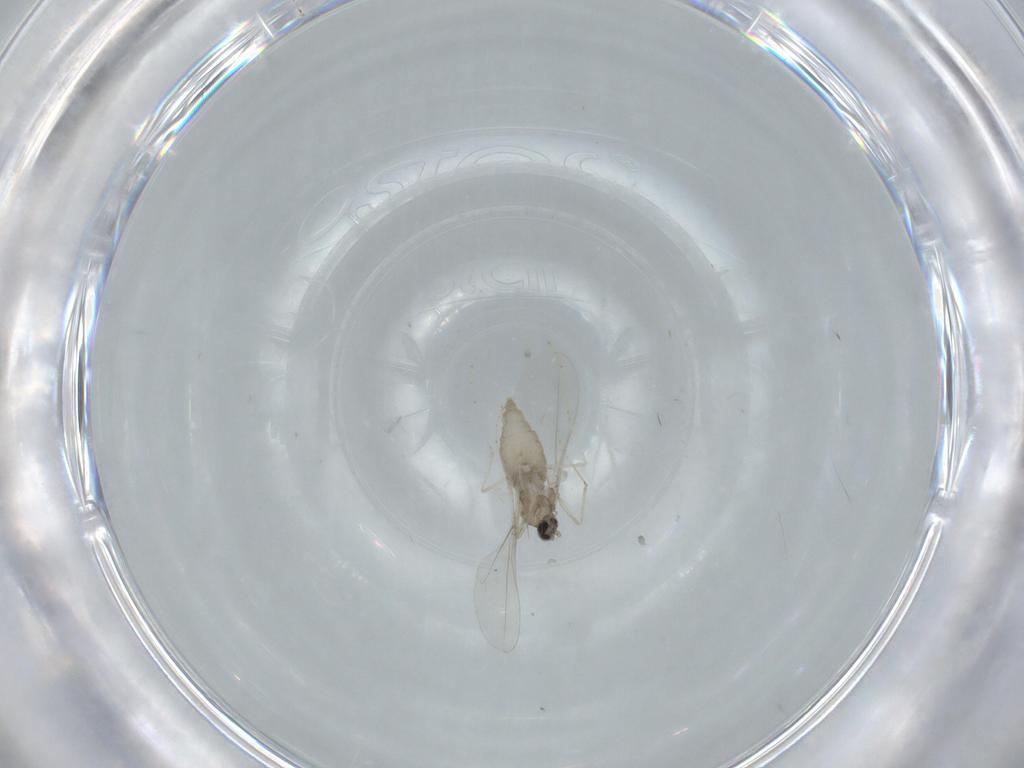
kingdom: Animalia
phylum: Arthropoda
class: Insecta
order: Diptera
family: Cecidomyiidae
